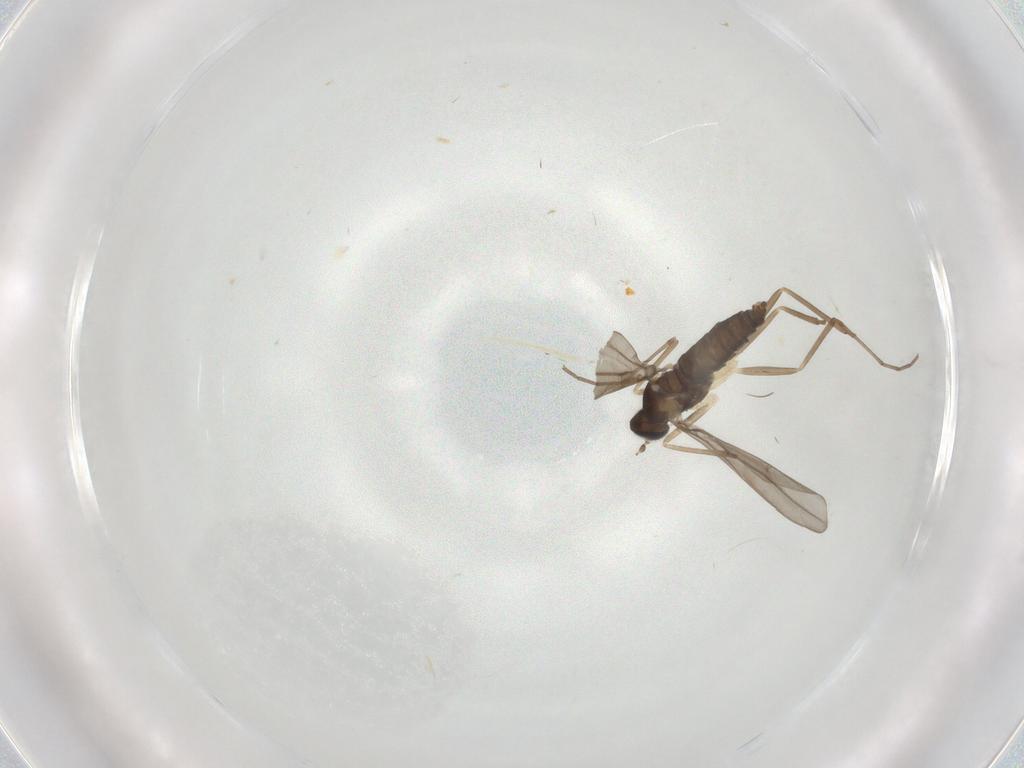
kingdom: Animalia
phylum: Arthropoda
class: Insecta
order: Diptera
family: Cecidomyiidae
